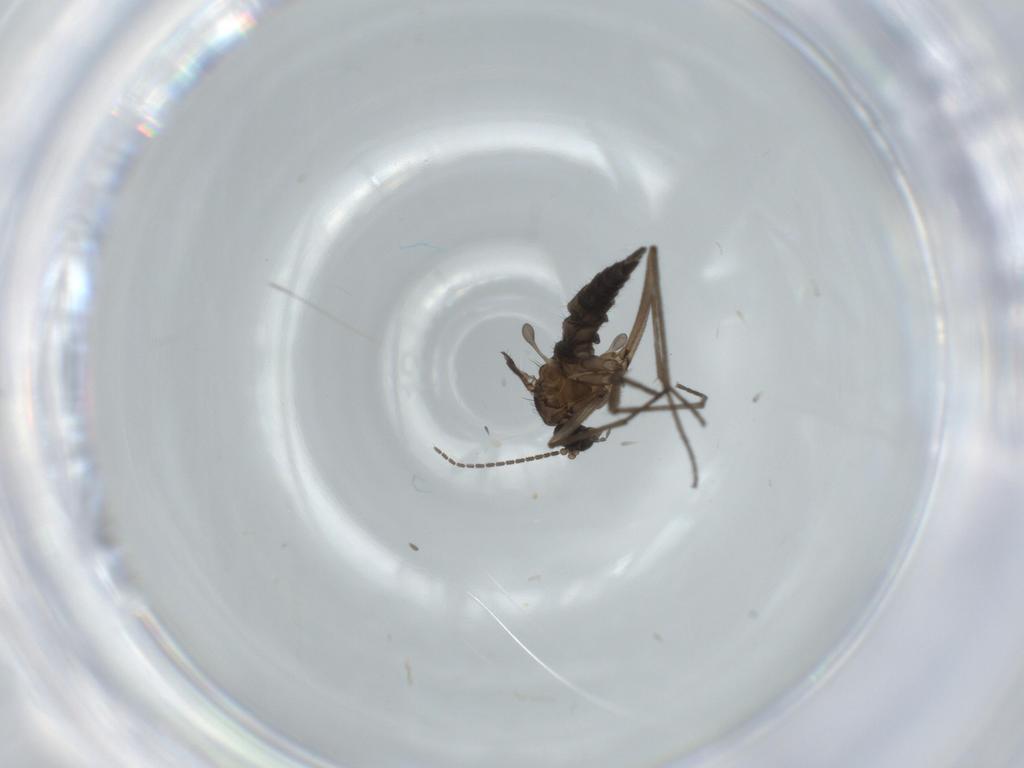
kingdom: Animalia
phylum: Arthropoda
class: Insecta
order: Diptera
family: Sciaridae
